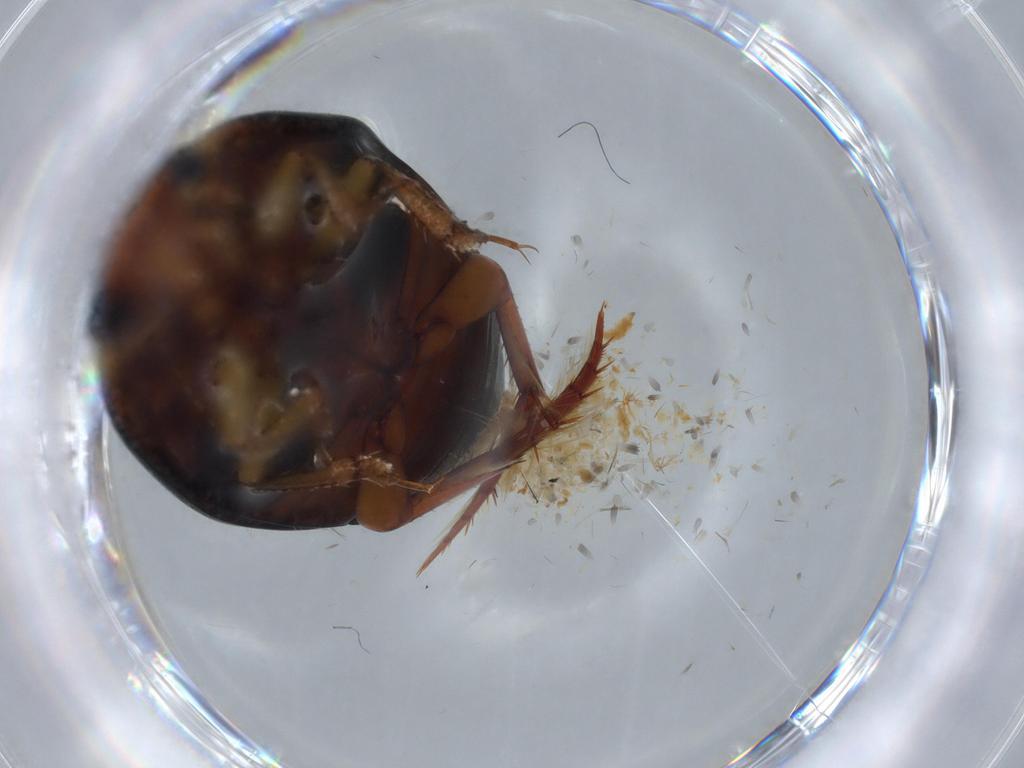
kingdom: Animalia
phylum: Arthropoda
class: Insecta
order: Coleoptera
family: Dytiscidae
